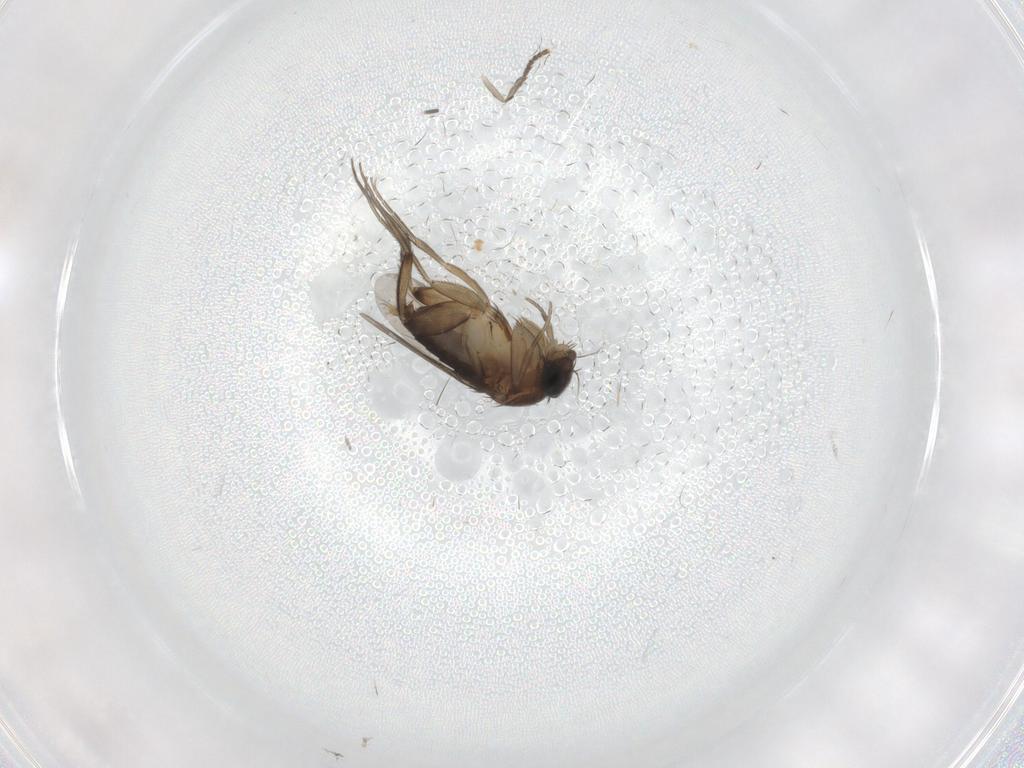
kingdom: Animalia
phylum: Arthropoda
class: Insecta
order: Diptera
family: Phoridae
